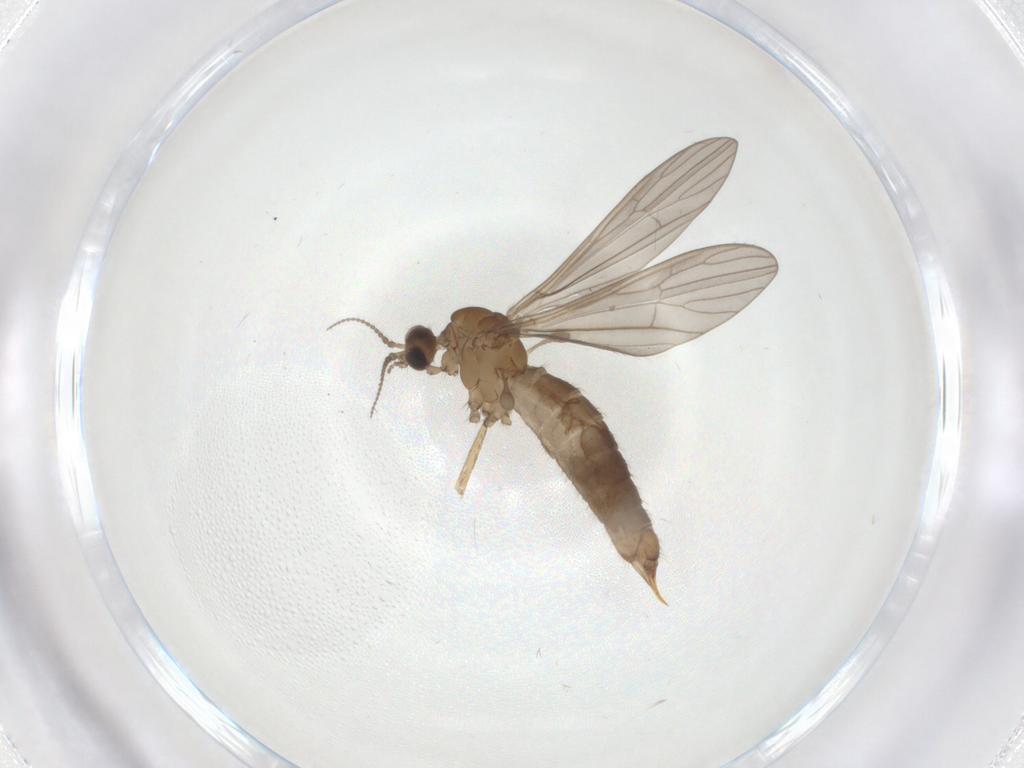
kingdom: Animalia
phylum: Arthropoda
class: Insecta
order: Diptera
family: Limoniidae
